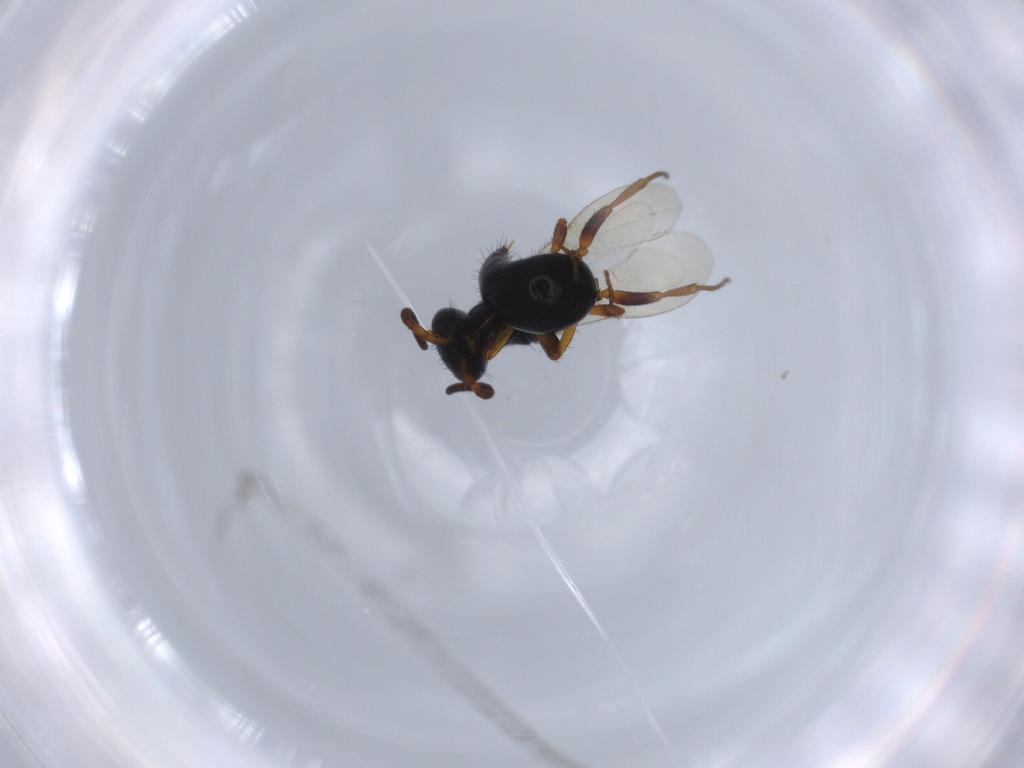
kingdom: Animalia
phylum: Arthropoda
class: Insecta
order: Hymenoptera
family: Bethylidae
